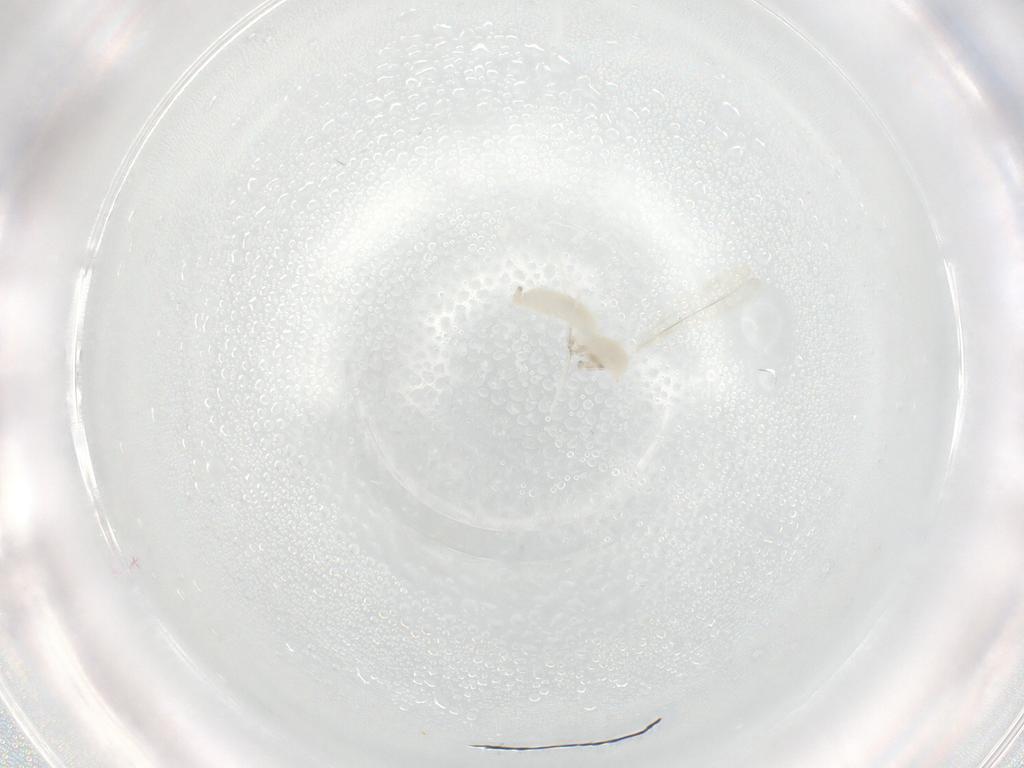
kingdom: Animalia
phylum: Arthropoda
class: Insecta
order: Diptera
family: Cecidomyiidae
